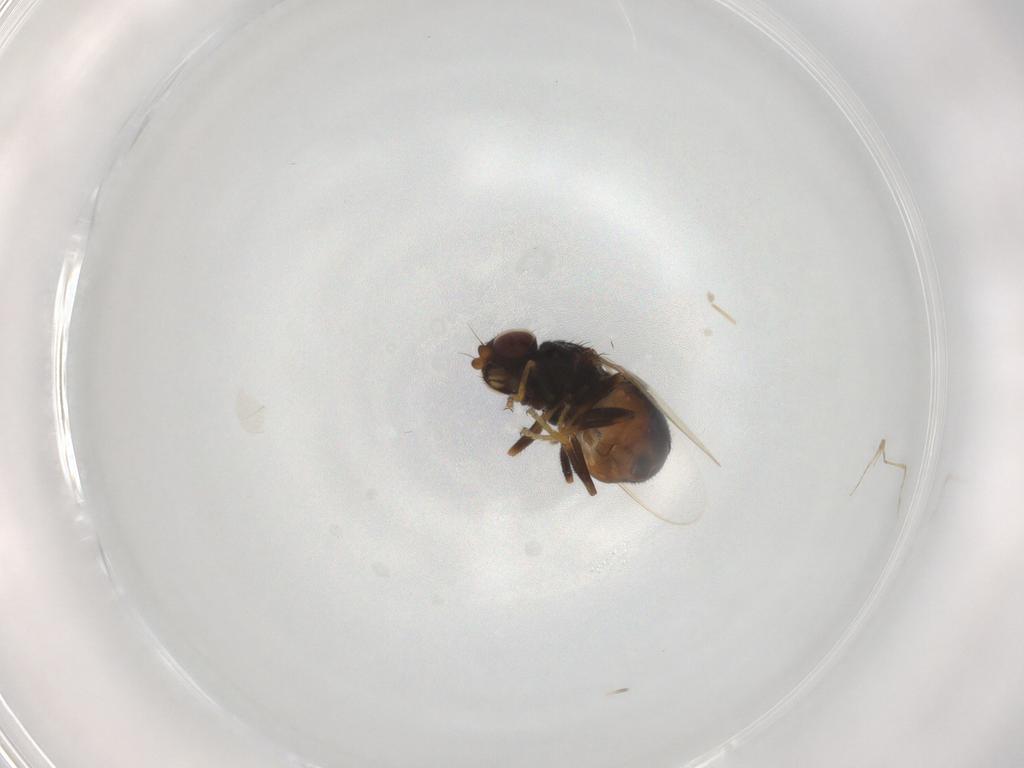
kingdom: Animalia
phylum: Arthropoda
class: Insecta
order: Diptera
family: Chloropidae
